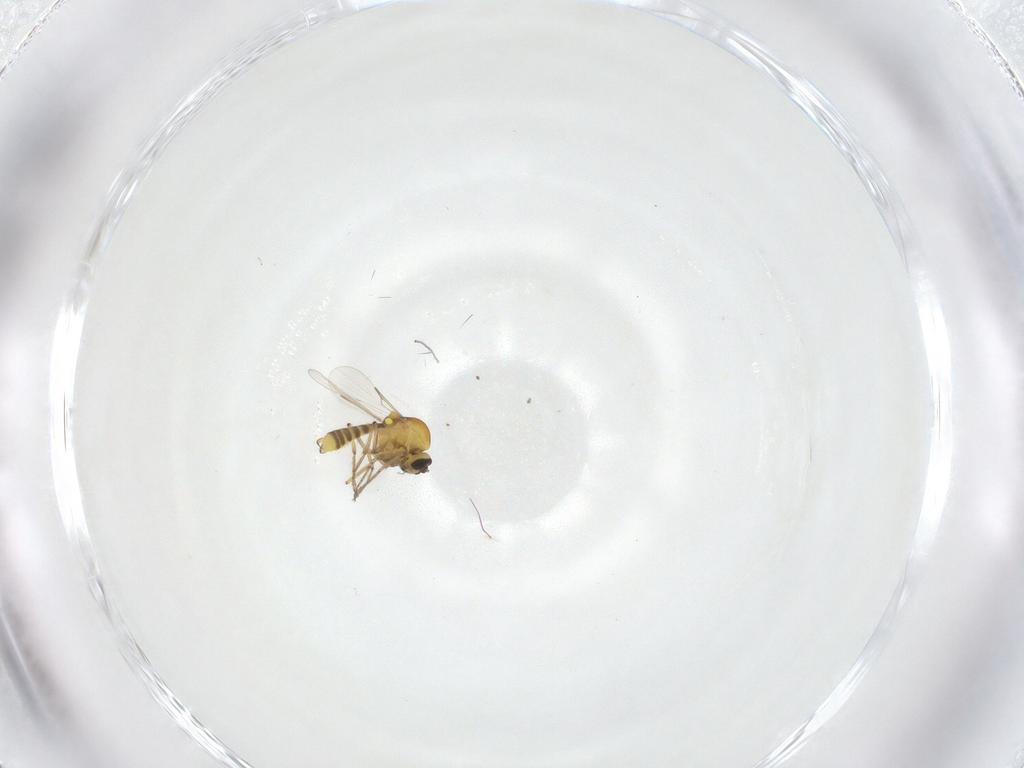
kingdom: Animalia
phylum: Arthropoda
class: Insecta
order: Diptera
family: Ceratopogonidae
